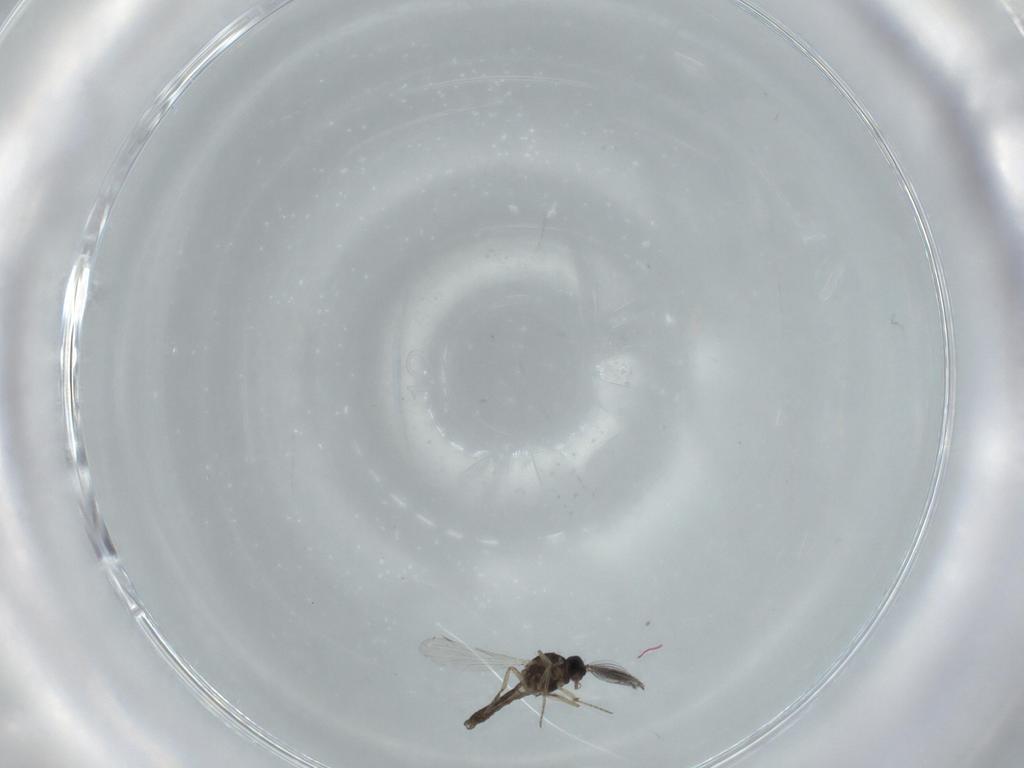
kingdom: Animalia
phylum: Arthropoda
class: Insecta
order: Diptera
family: Ceratopogonidae
